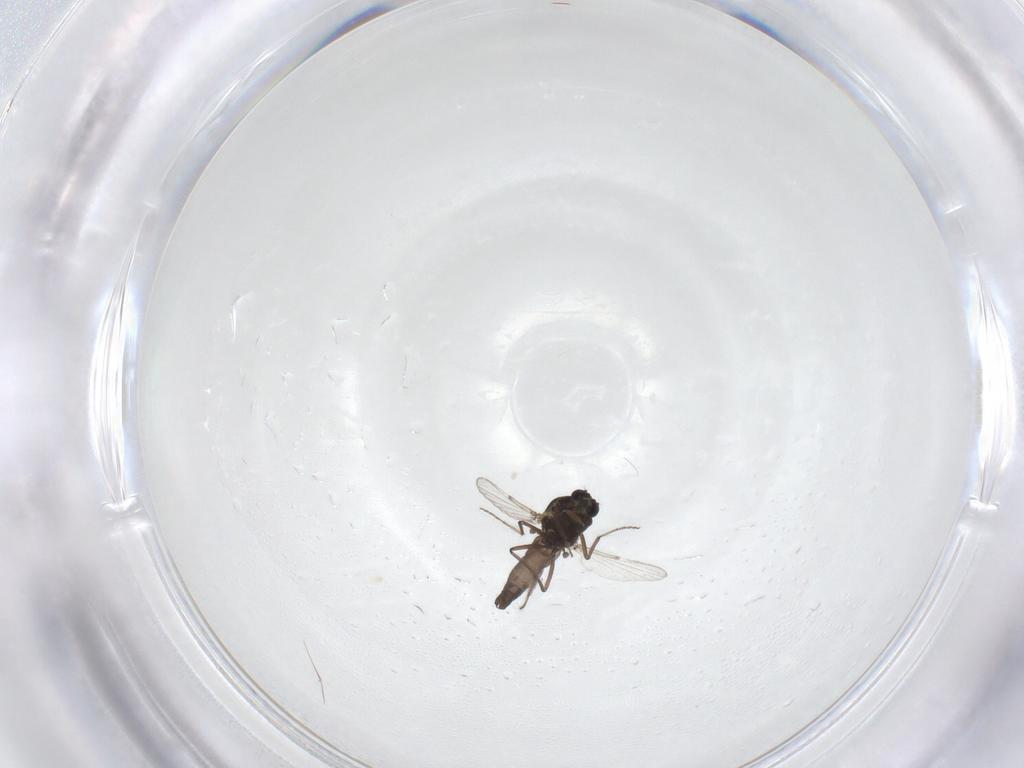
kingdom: Animalia
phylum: Arthropoda
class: Insecta
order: Diptera
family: Ceratopogonidae
